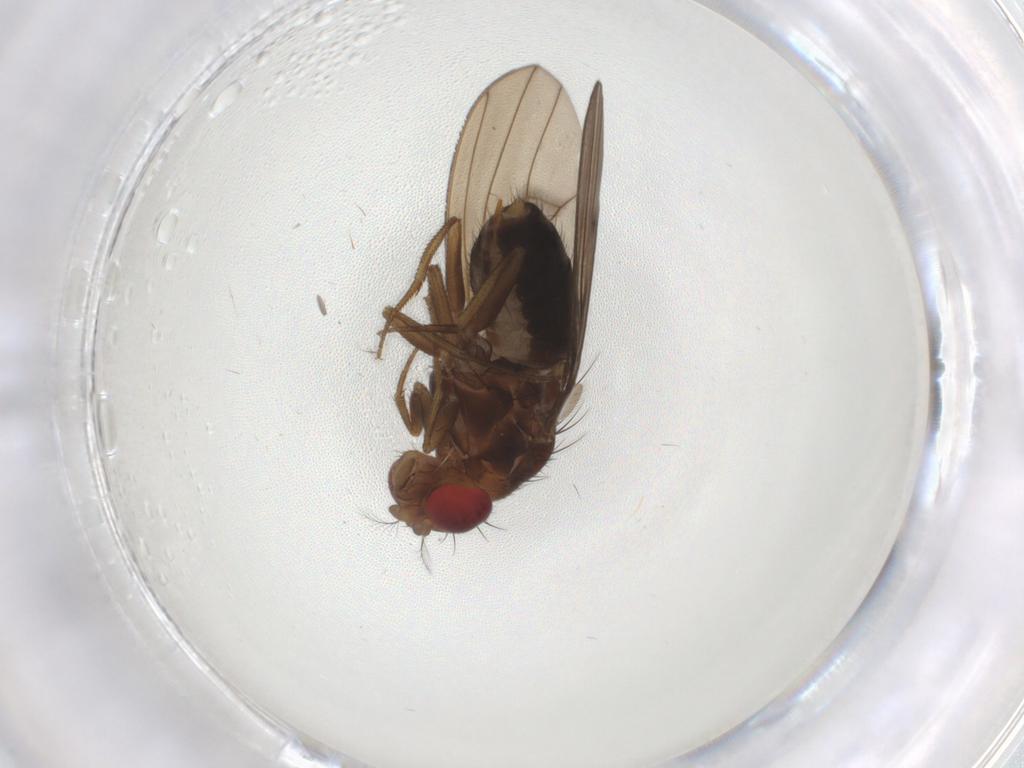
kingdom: Animalia
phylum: Arthropoda
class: Insecta
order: Diptera
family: Drosophilidae
